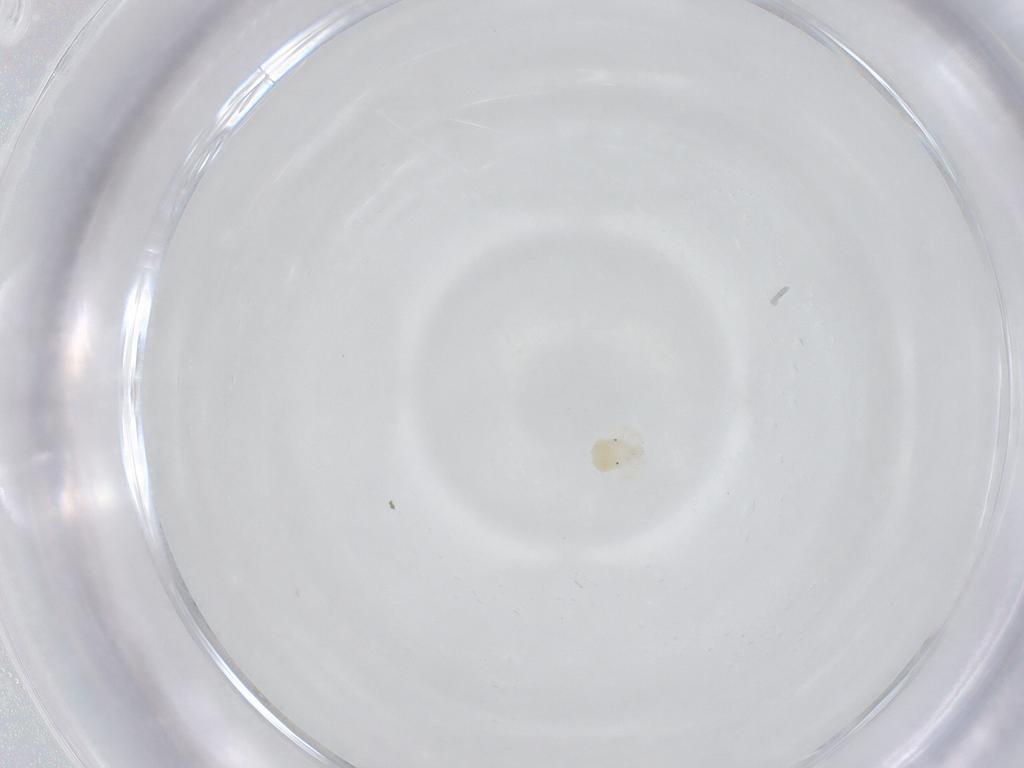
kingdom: Animalia
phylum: Arthropoda
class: Arachnida
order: Trombidiformes
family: Anystidae
